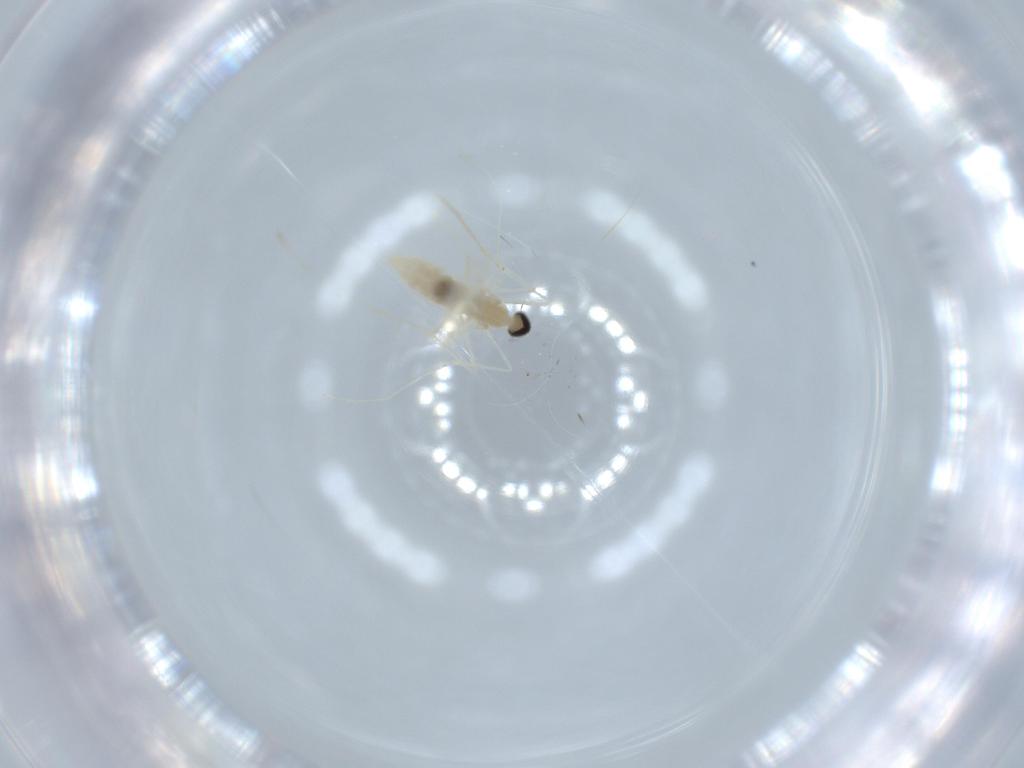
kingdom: Animalia
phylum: Arthropoda
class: Insecta
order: Diptera
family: Cecidomyiidae
